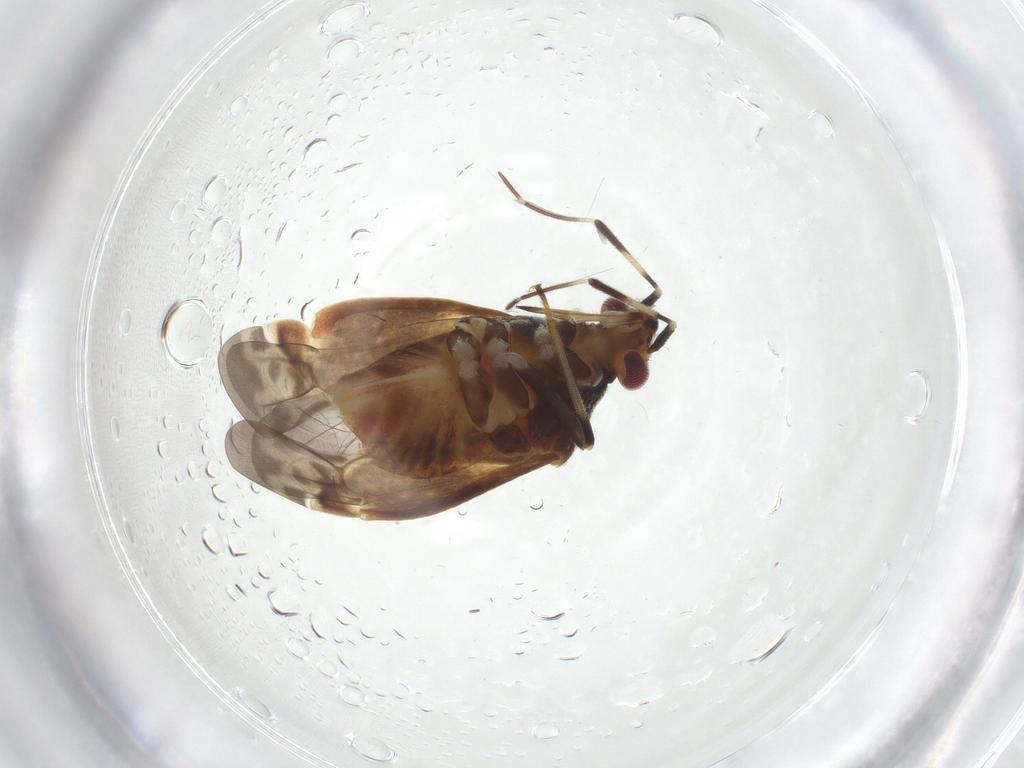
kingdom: Animalia
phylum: Arthropoda
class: Insecta
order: Hemiptera
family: Miridae
